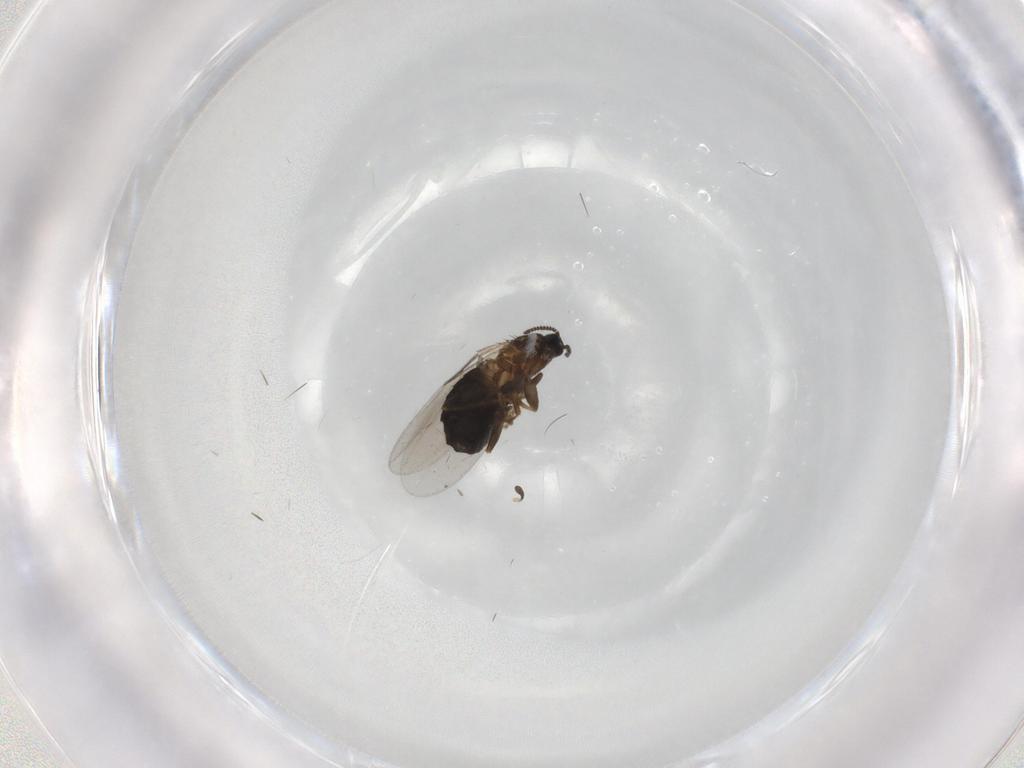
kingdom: Animalia
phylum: Arthropoda
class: Insecta
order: Diptera
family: Scatopsidae
